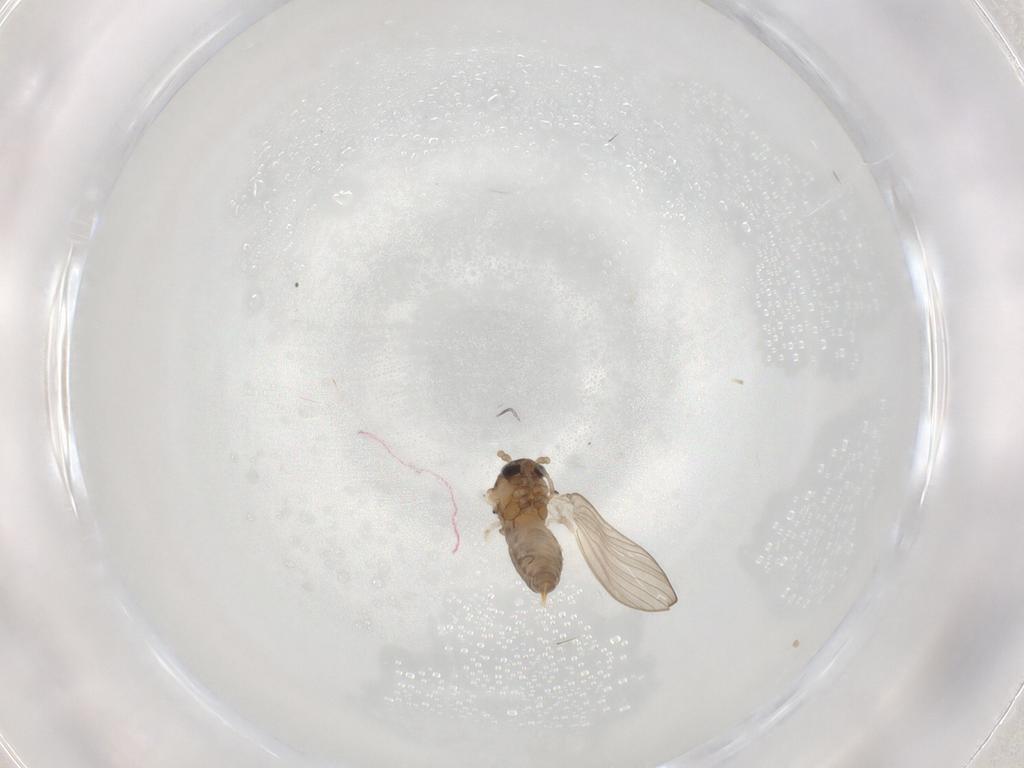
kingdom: Animalia
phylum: Arthropoda
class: Insecta
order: Diptera
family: Psychodidae
